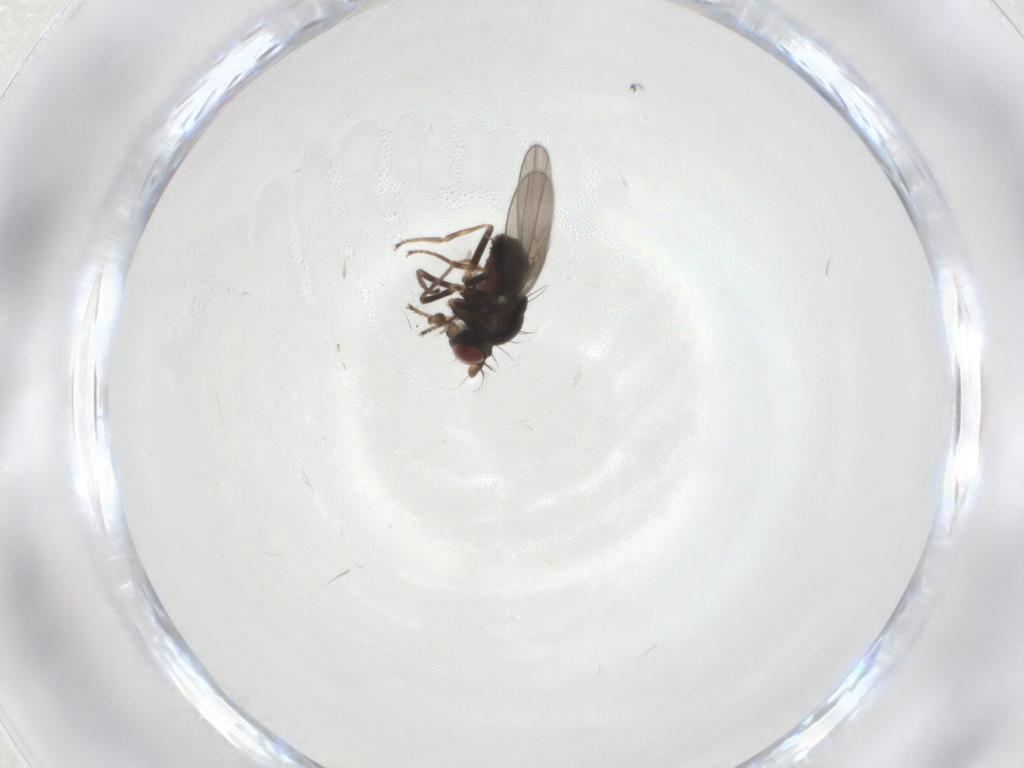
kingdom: Animalia
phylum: Arthropoda
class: Insecta
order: Diptera
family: Ephydridae
